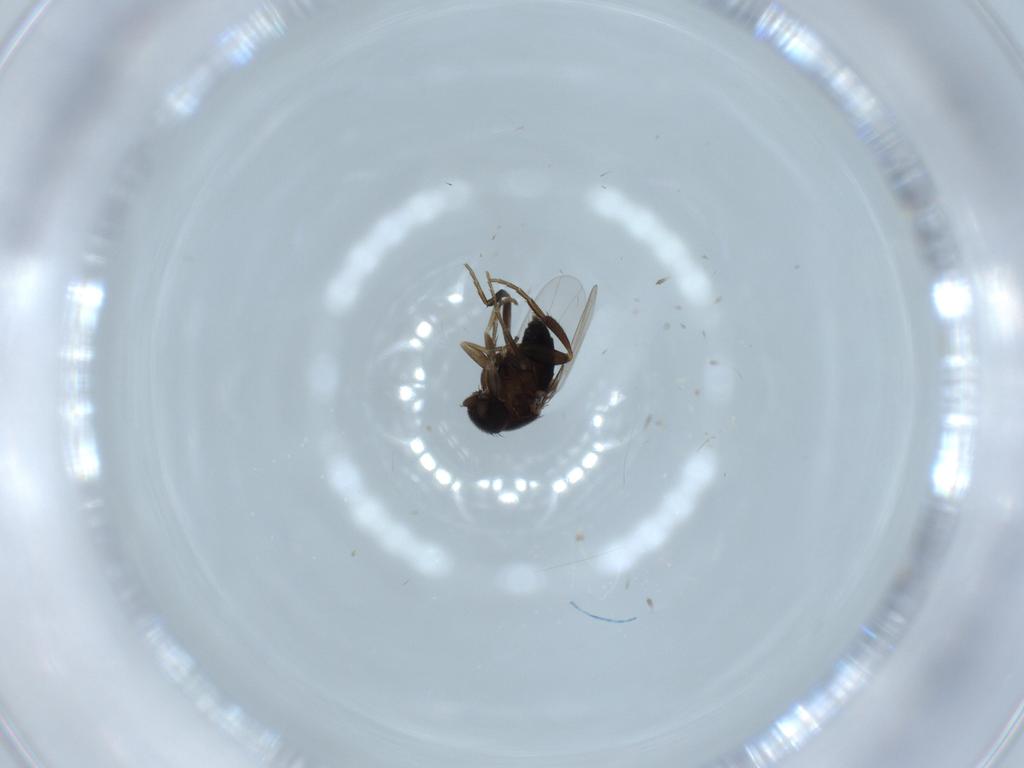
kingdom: Animalia
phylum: Arthropoda
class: Insecta
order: Diptera
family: Phoridae
